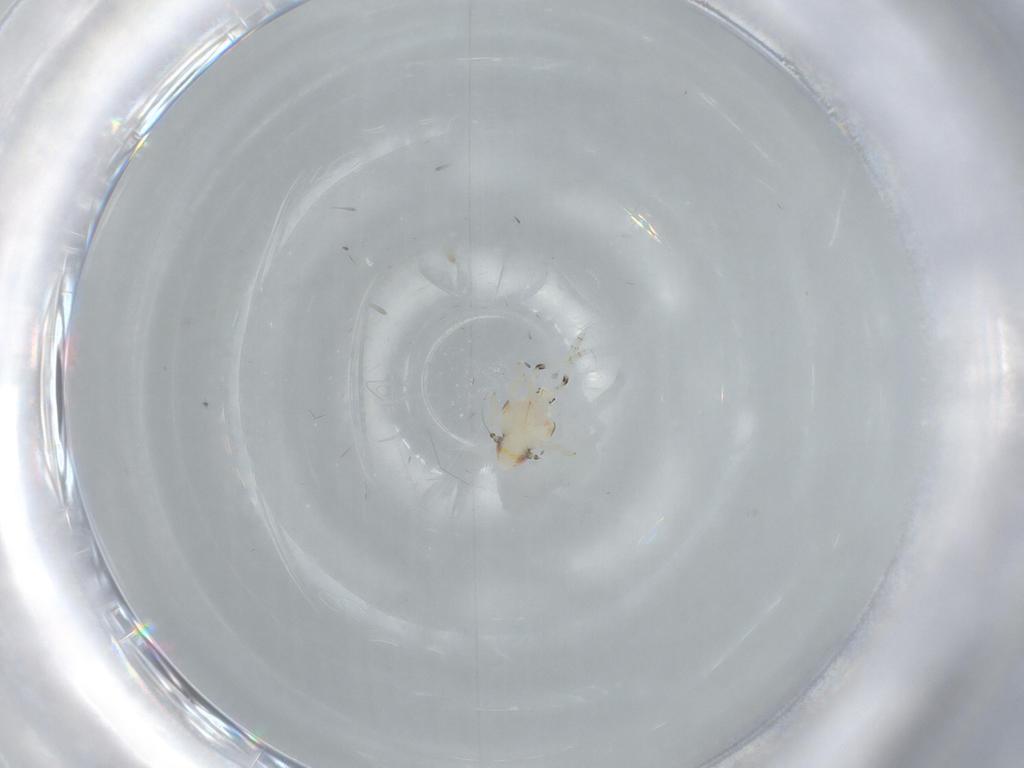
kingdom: Animalia
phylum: Arthropoda
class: Insecta
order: Hemiptera
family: Nogodinidae
